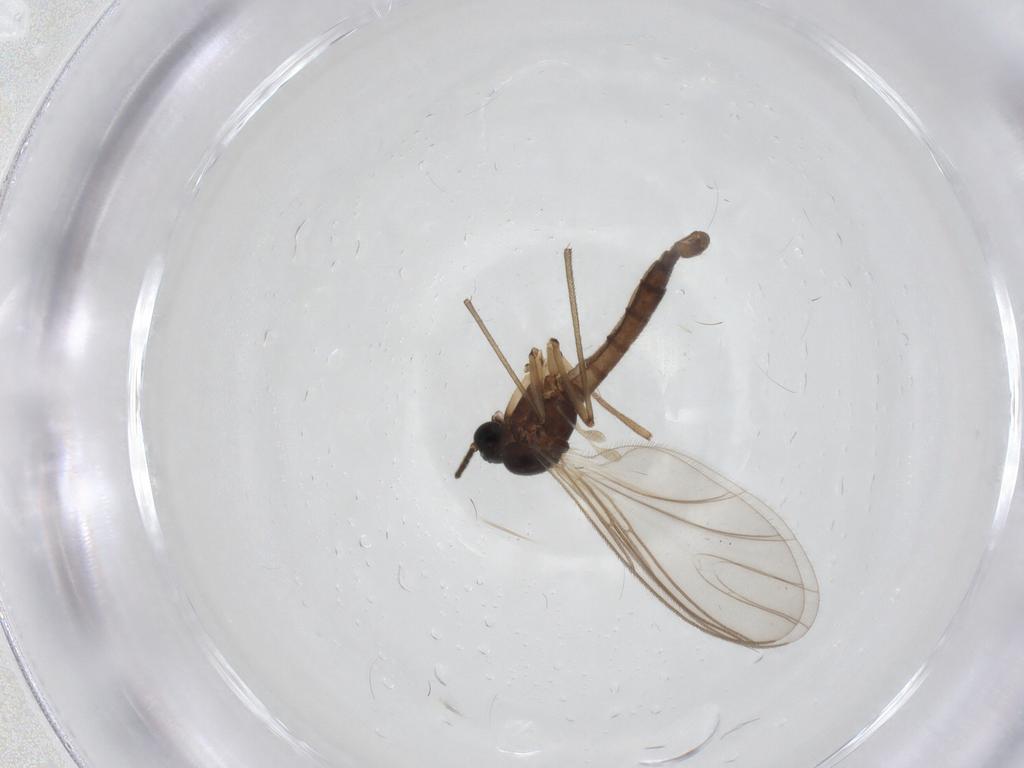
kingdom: Animalia
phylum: Arthropoda
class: Insecta
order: Diptera
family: Sciaridae
